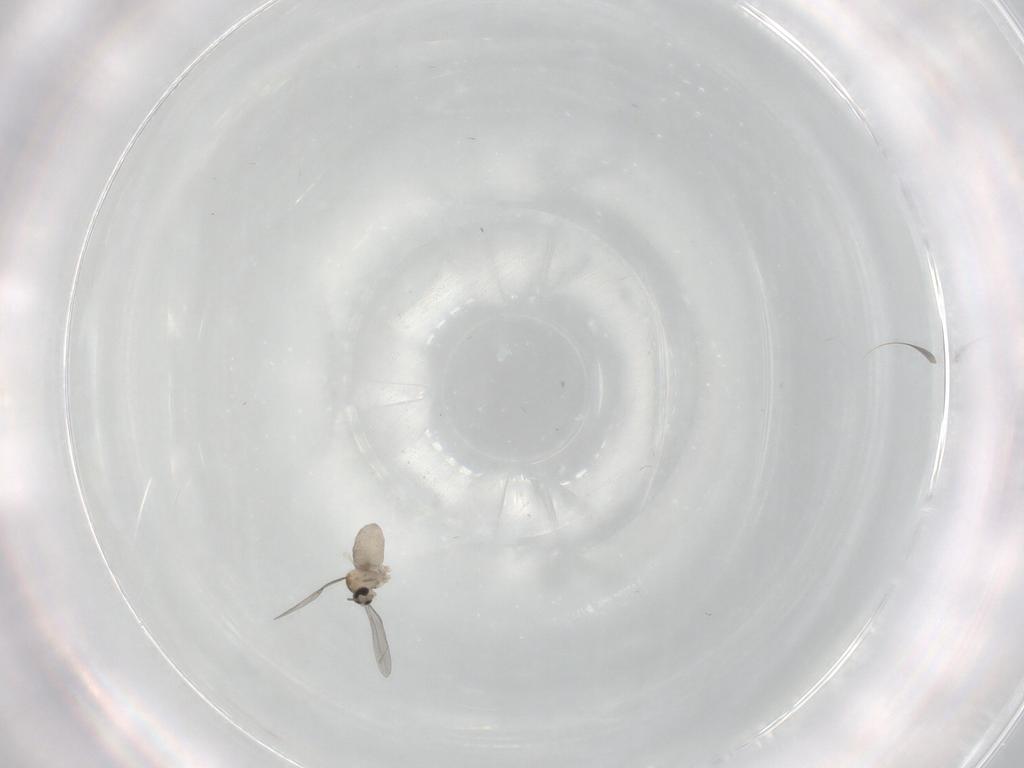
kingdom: Animalia
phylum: Arthropoda
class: Insecta
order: Diptera
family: Cecidomyiidae
